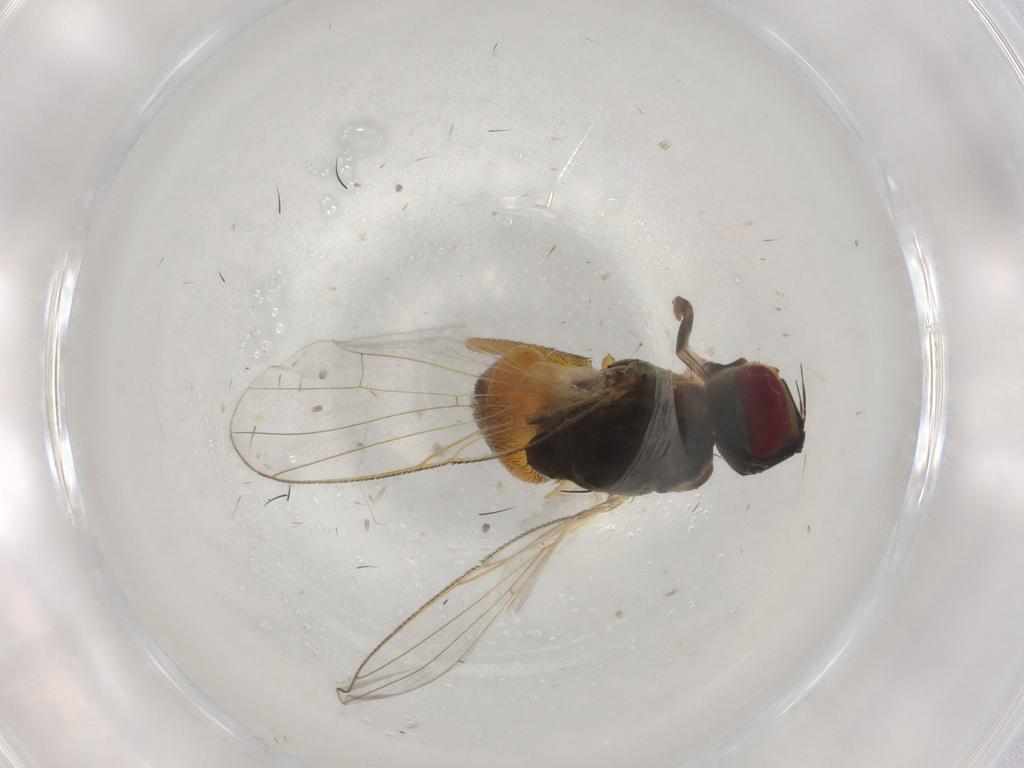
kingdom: Animalia
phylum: Arthropoda
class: Insecta
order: Diptera
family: Muscidae
